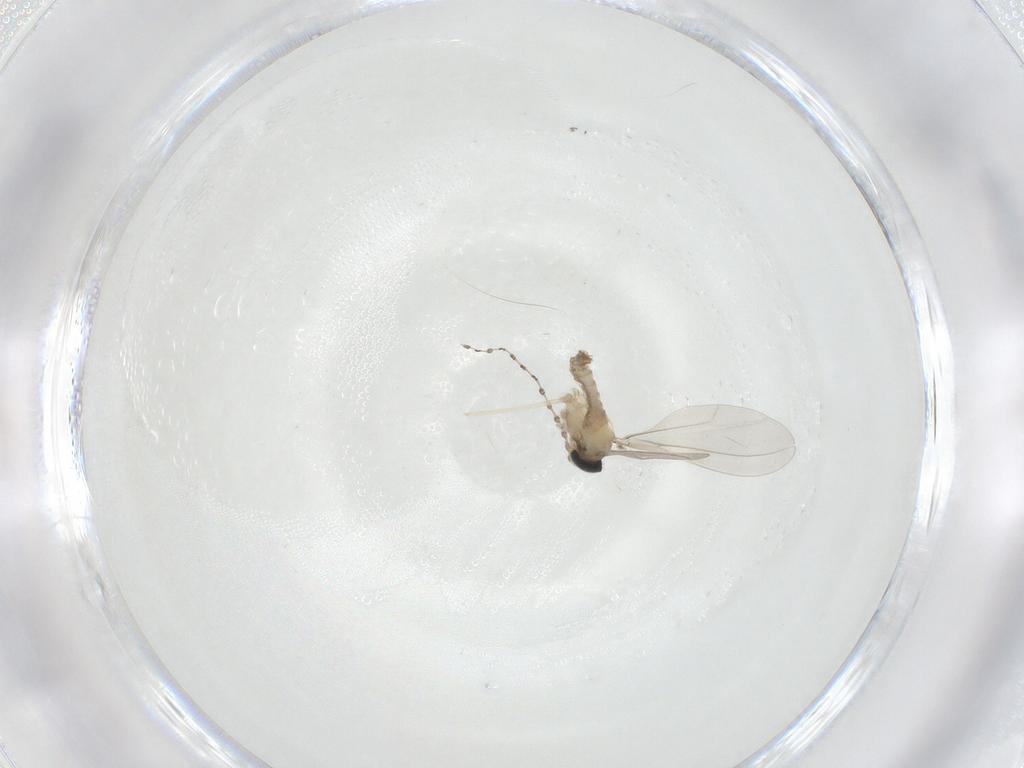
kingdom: Animalia
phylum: Arthropoda
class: Insecta
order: Diptera
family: Cecidomyiidae
